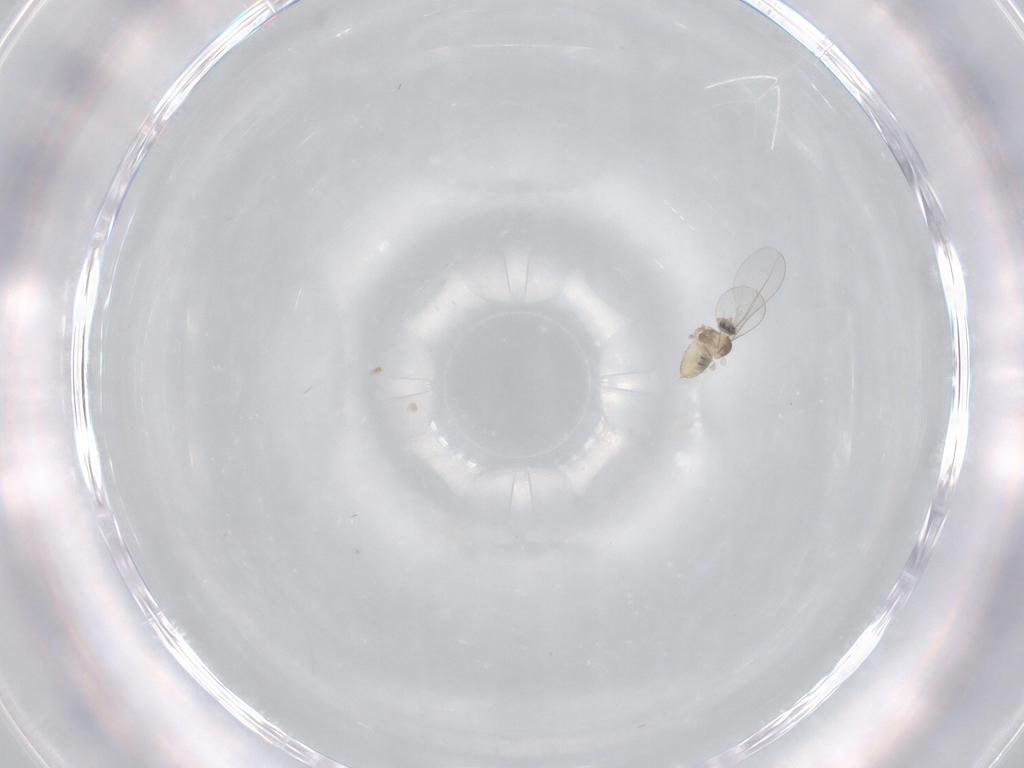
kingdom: Animalia
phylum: Arthropoda
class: Insecta
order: Diptera
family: Cecidomyiidae
